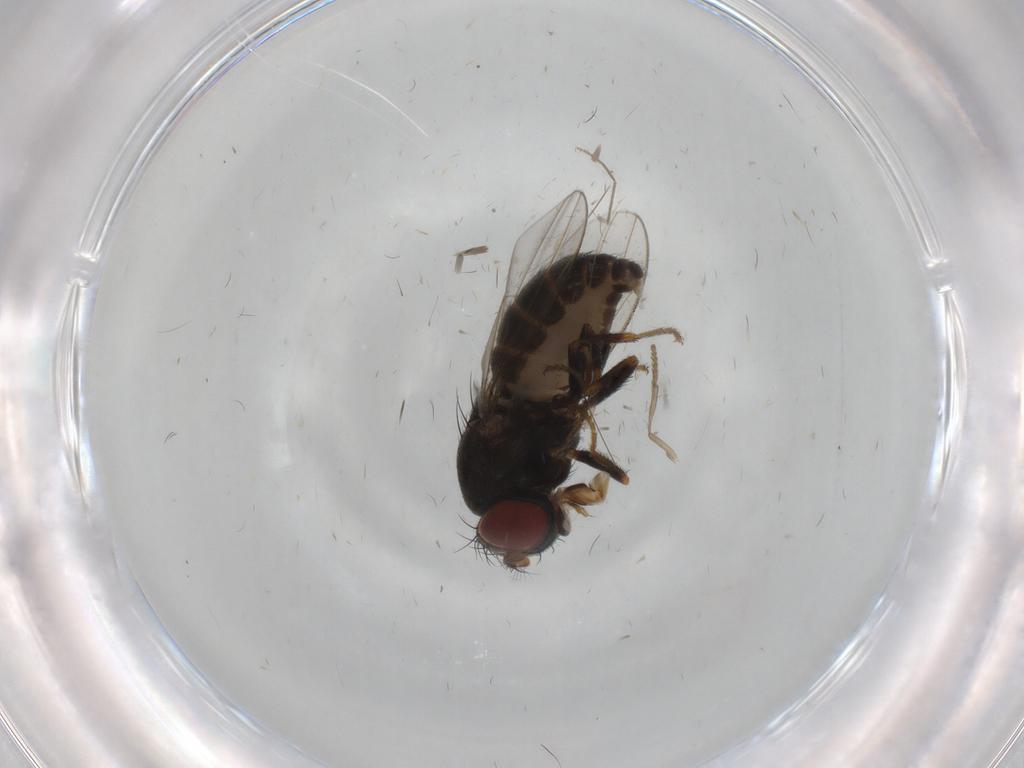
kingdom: Animalia
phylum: Arthropoda
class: Insecta
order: Diptera
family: Psychodidae
